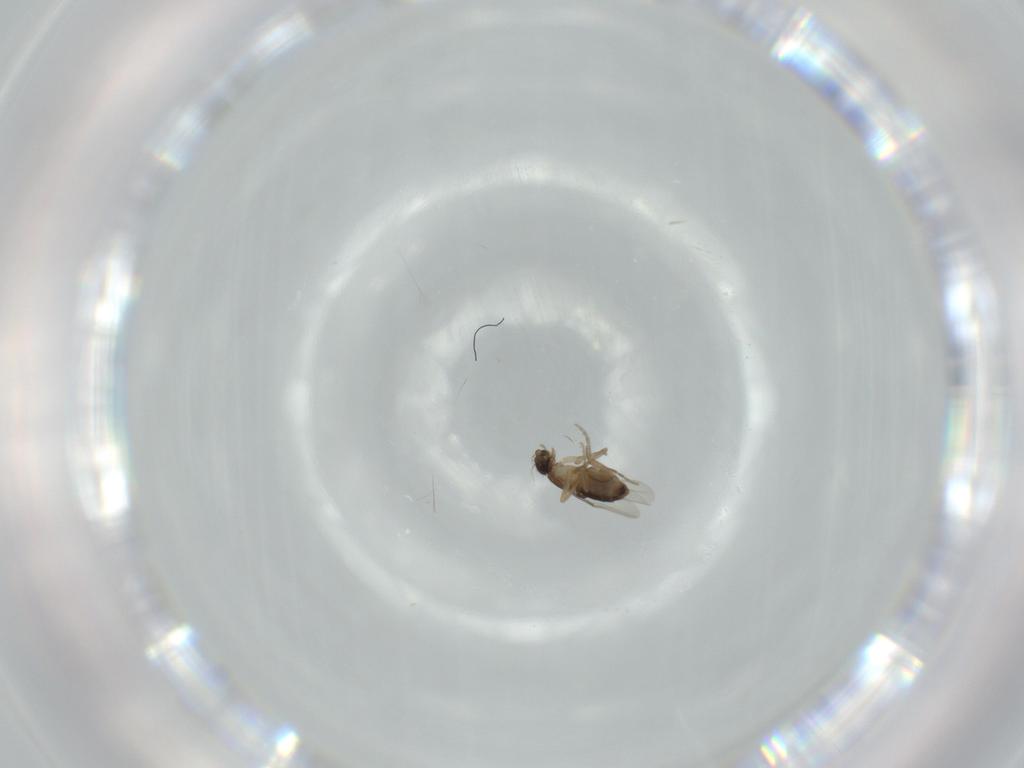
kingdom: Animalia
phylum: Arthropoda
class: Insecta
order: Diptera
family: Phoridae
